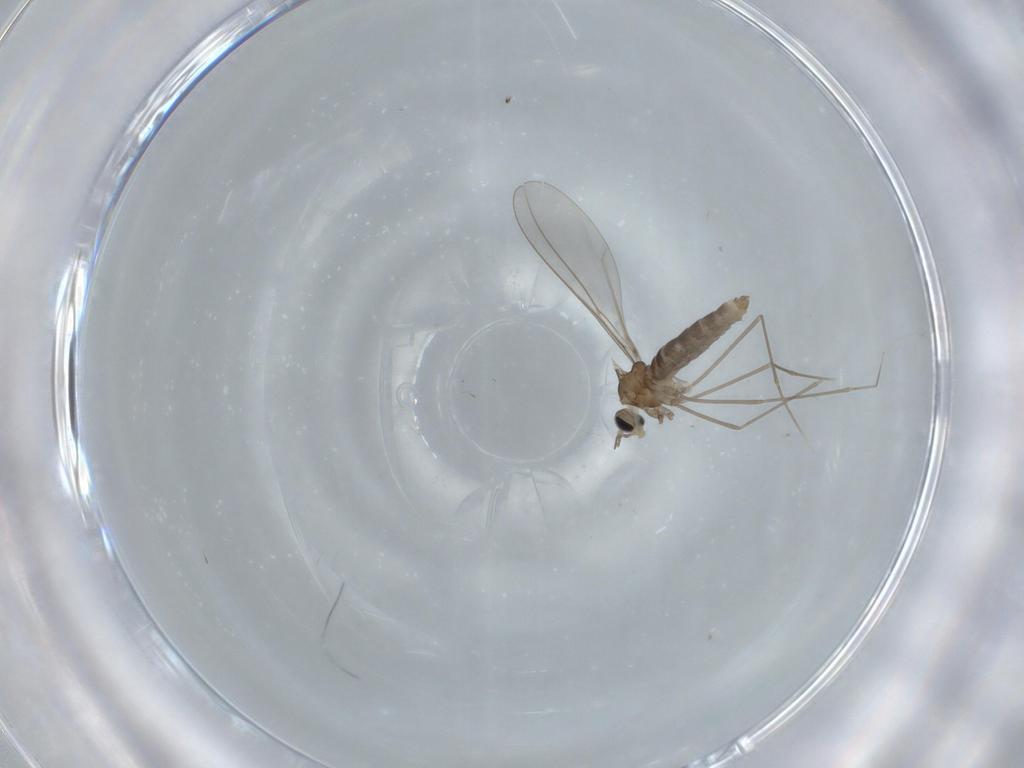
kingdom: Animalia
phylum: Arthropoda
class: Insecta
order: Diptera
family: Cecidomyiidae
